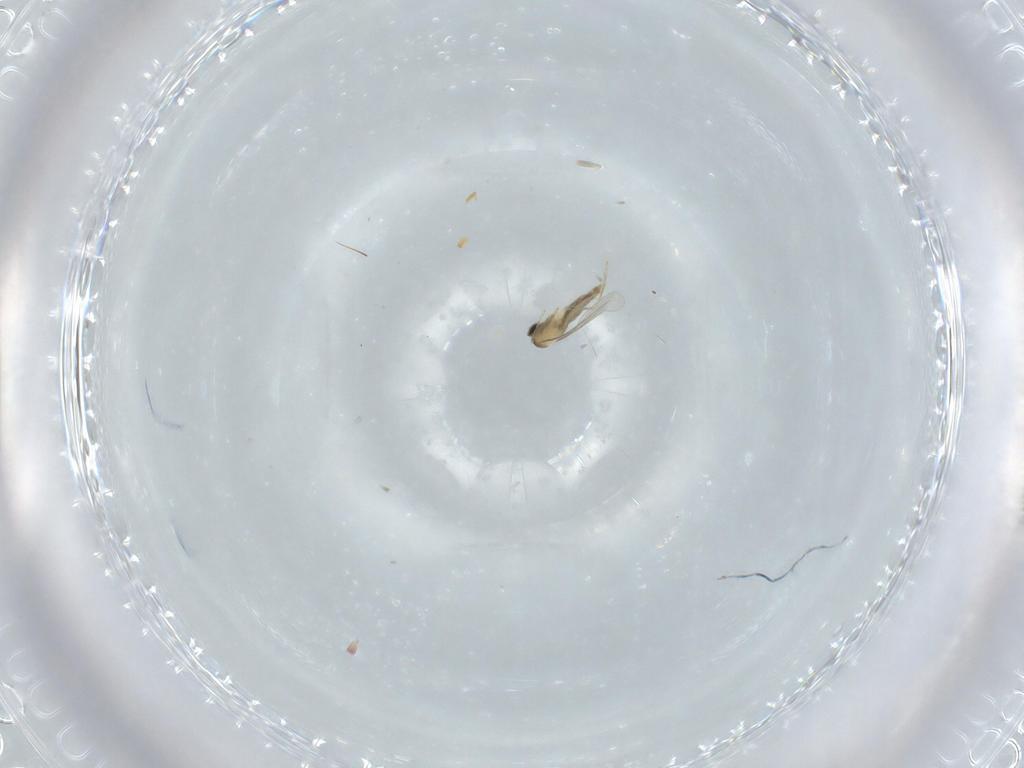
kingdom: Animalia
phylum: Arthropoda
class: Insecta
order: Diptera
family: Cecidomyiidae
